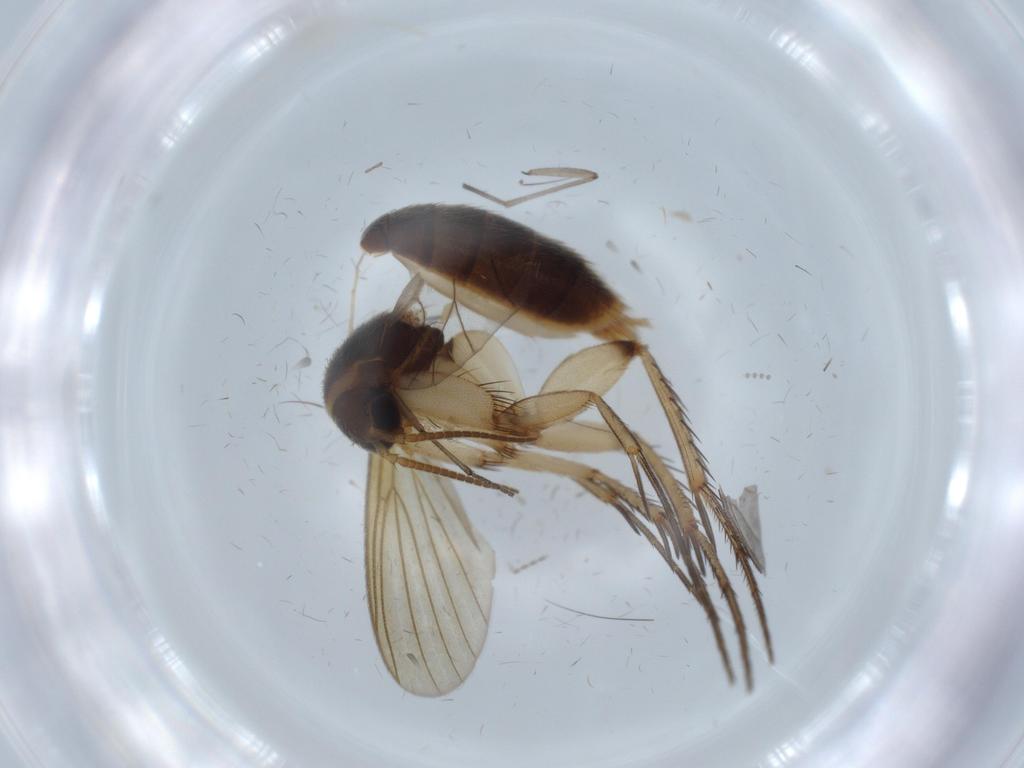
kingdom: Animalia
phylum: Arthropoda
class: Insecta
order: Diptera
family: Mycetophilidae
